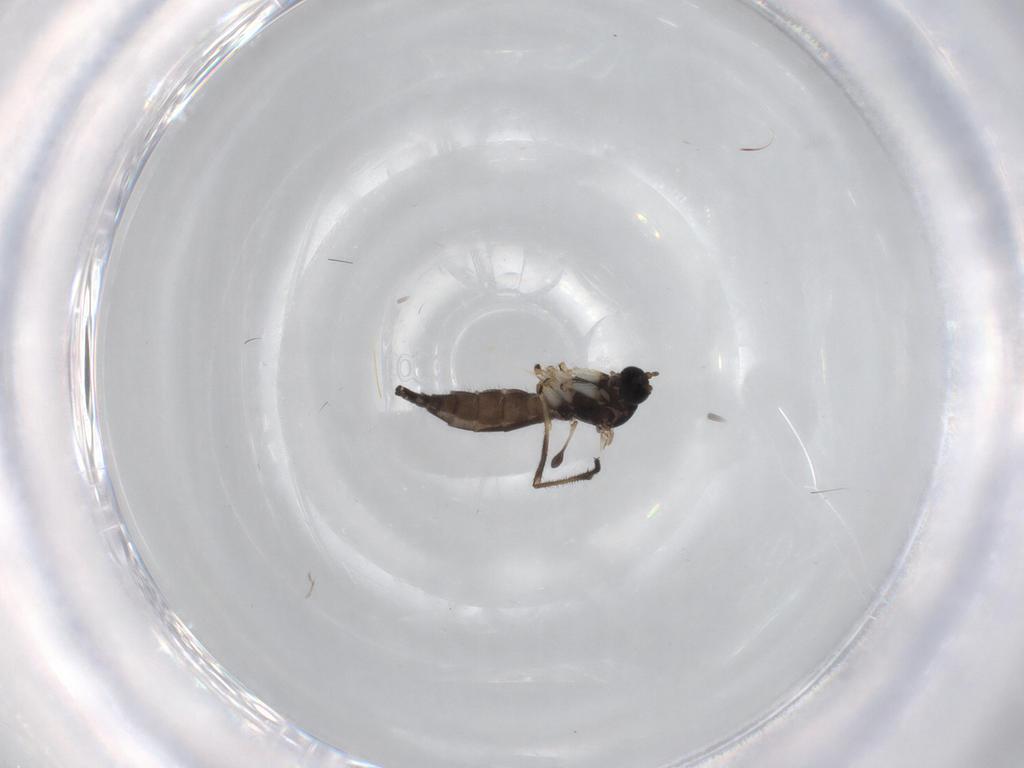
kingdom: Animalia
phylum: Arthropoda
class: Insecta
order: Diptera
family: Sciaridae
